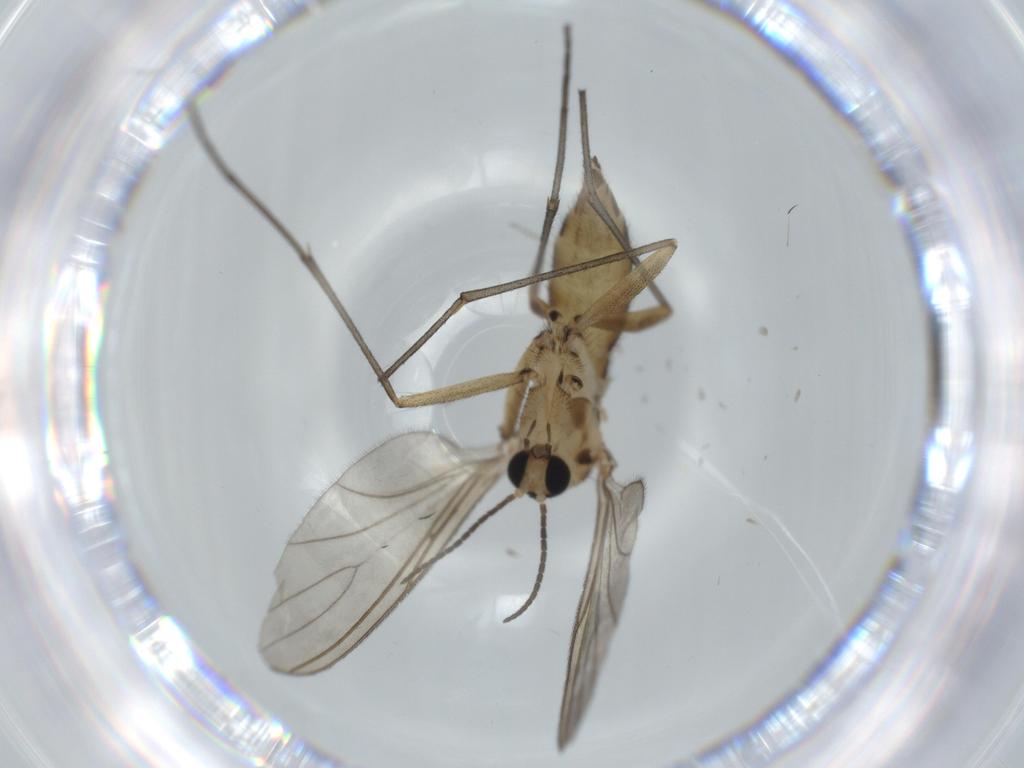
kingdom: Animalia
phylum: Arthropoda
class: Insecta
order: Diptera
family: Sciaridae
